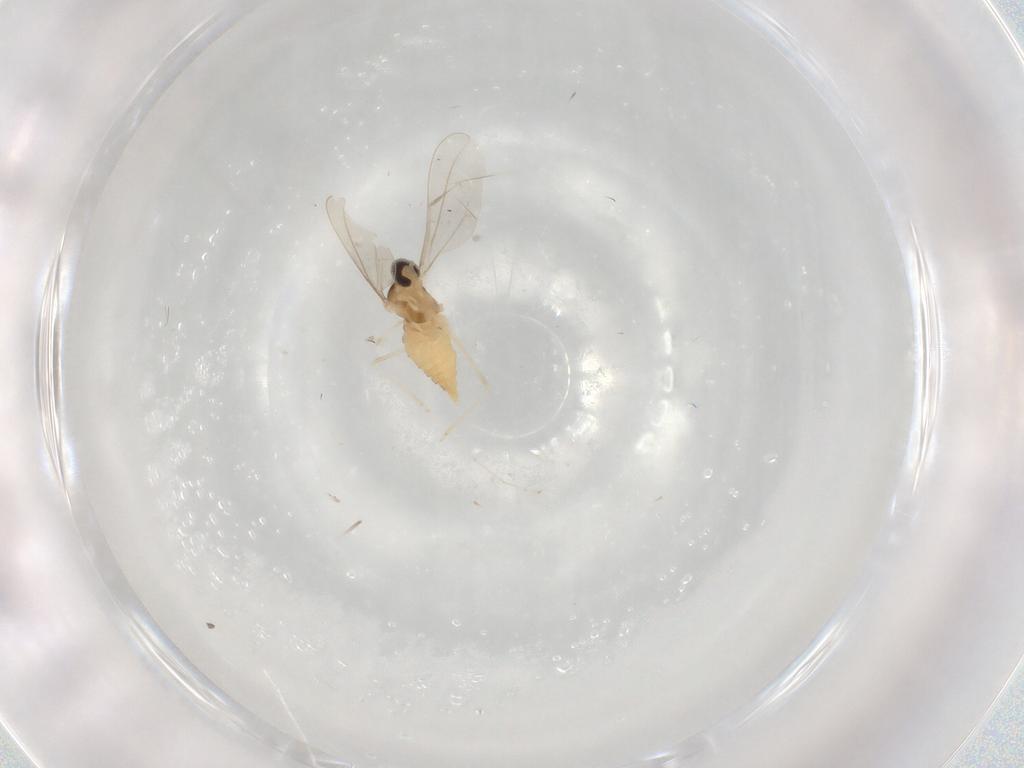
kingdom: Animalia
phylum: Arthropoda
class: Insecta
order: Diptera
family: Cecidomyiidae
